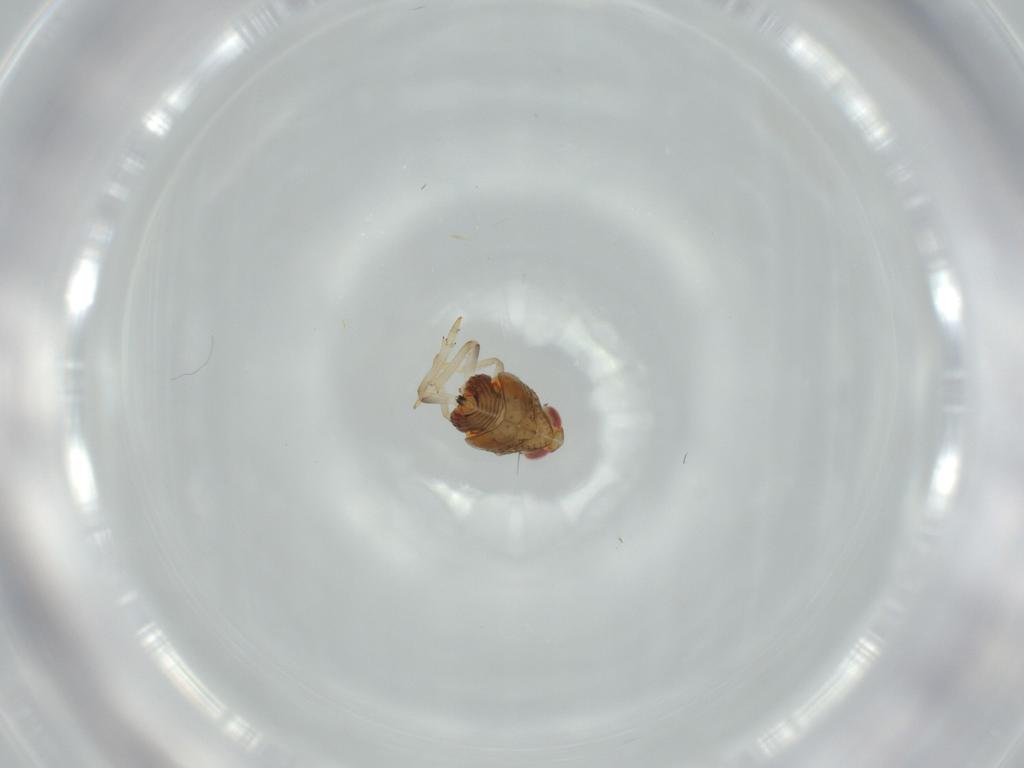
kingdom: Animalia
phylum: Arthropoda
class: Insecta
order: Hemiptera
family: Issidae
